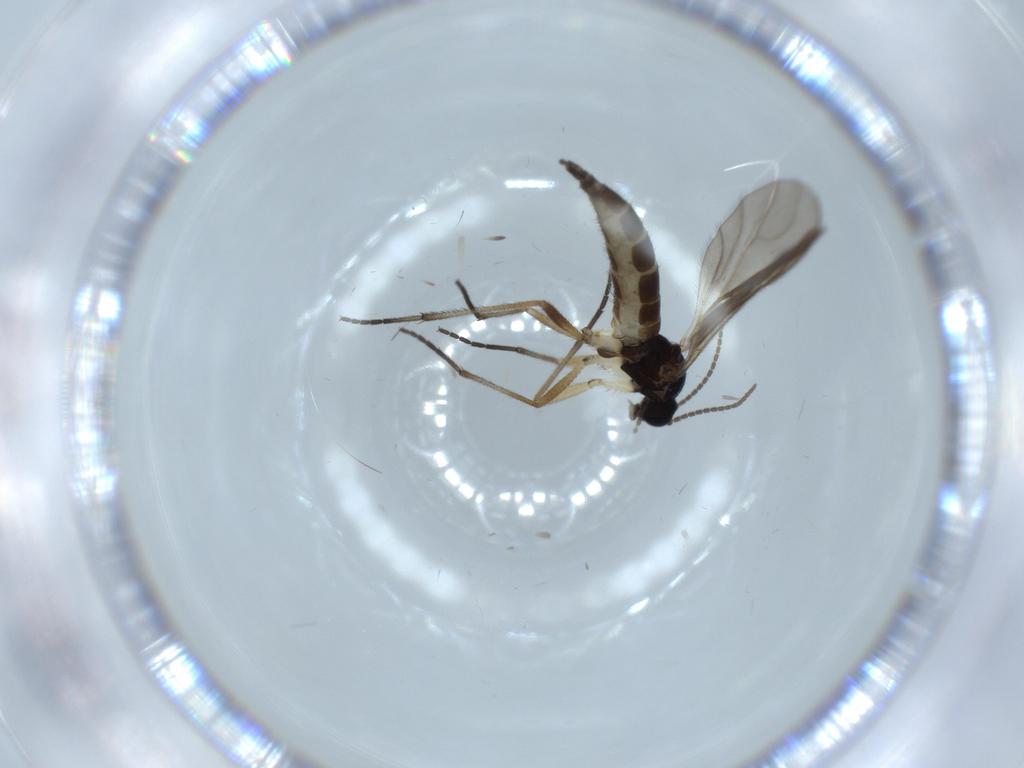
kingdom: Animalia
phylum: Arthropoda
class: Insecta
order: Diptera
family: Sciaridae
